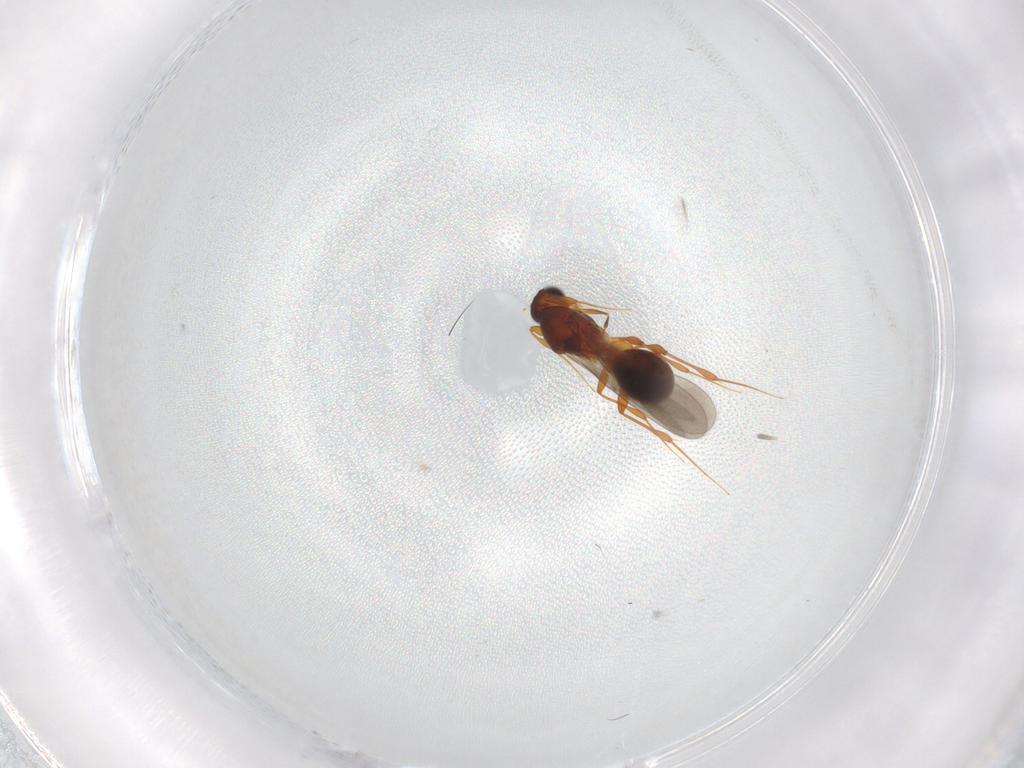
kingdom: Animalia
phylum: Arthropoda
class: Insecta
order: Hymenoptera
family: Platygastridae
